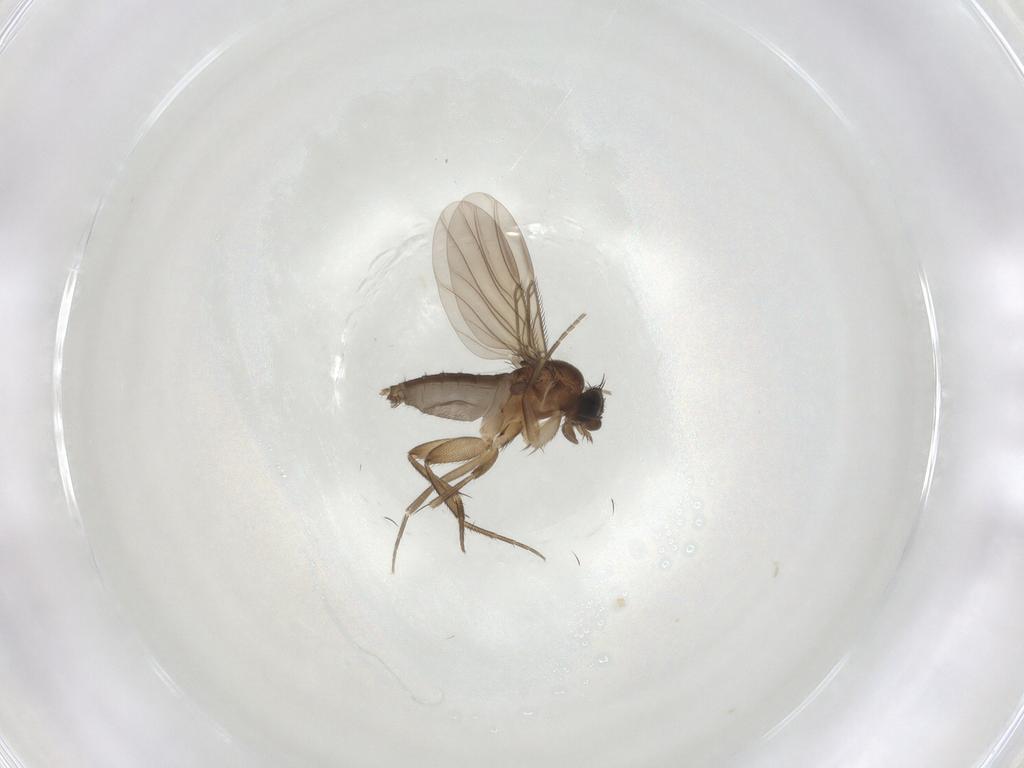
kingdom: Animalia
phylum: Arthropoda
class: Insecta
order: Diptera
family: Phoridae
